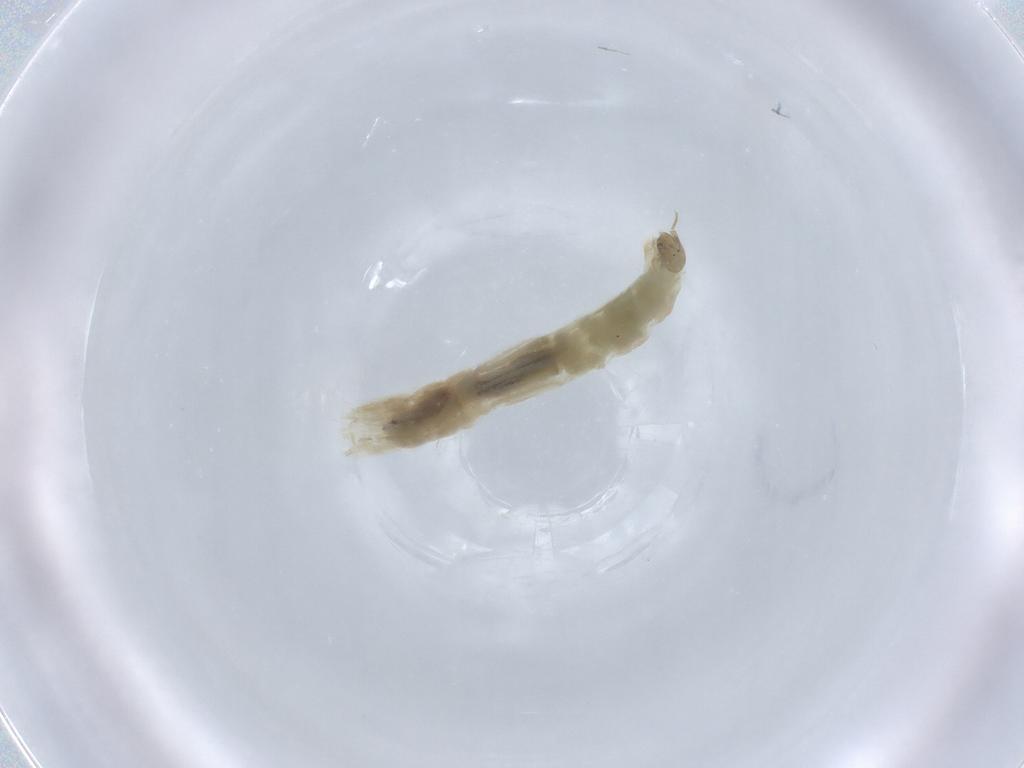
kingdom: Animalia
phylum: Arthropoda
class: Insecta
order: Diptera
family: Chironomidae
